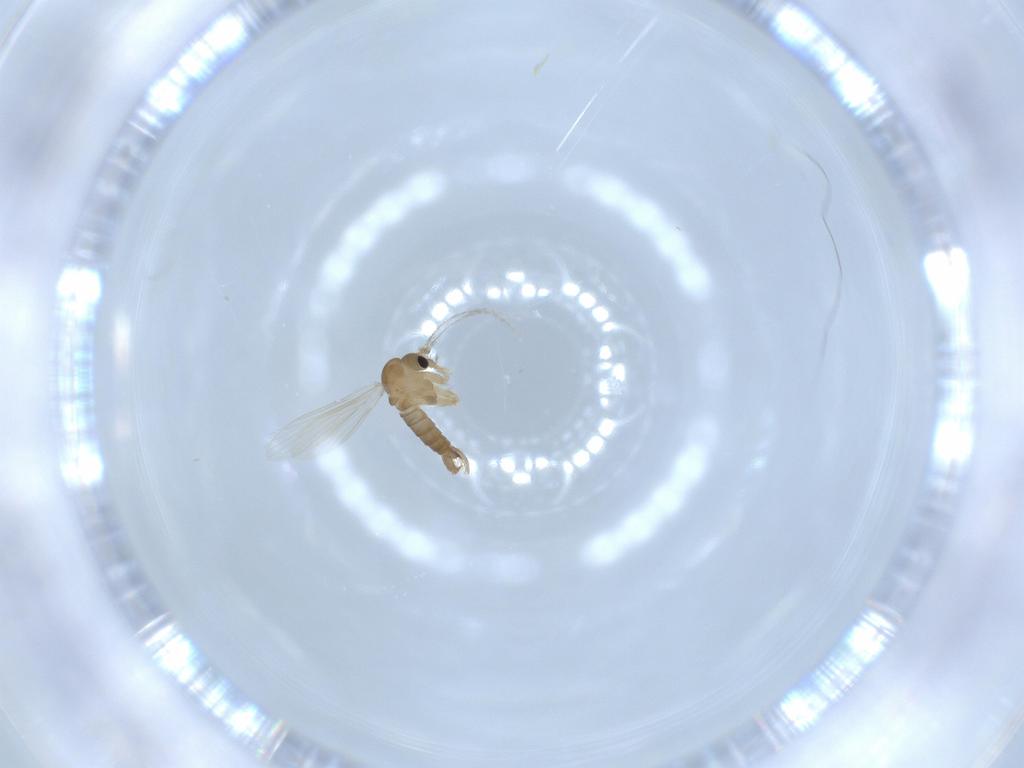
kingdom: Animalia
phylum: Arthropoda
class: Insecta
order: Diptera
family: Psychodidae
